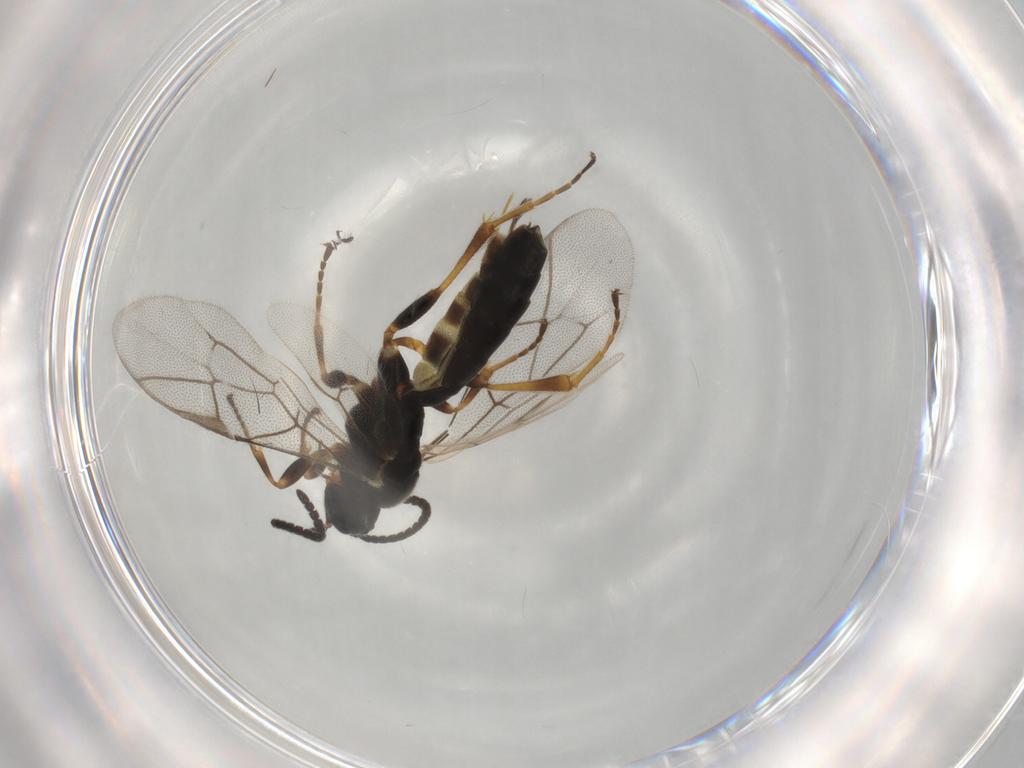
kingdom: Animalia
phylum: Arthropoda
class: Insecta
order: Hymenoptera
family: Ichneumonidae
